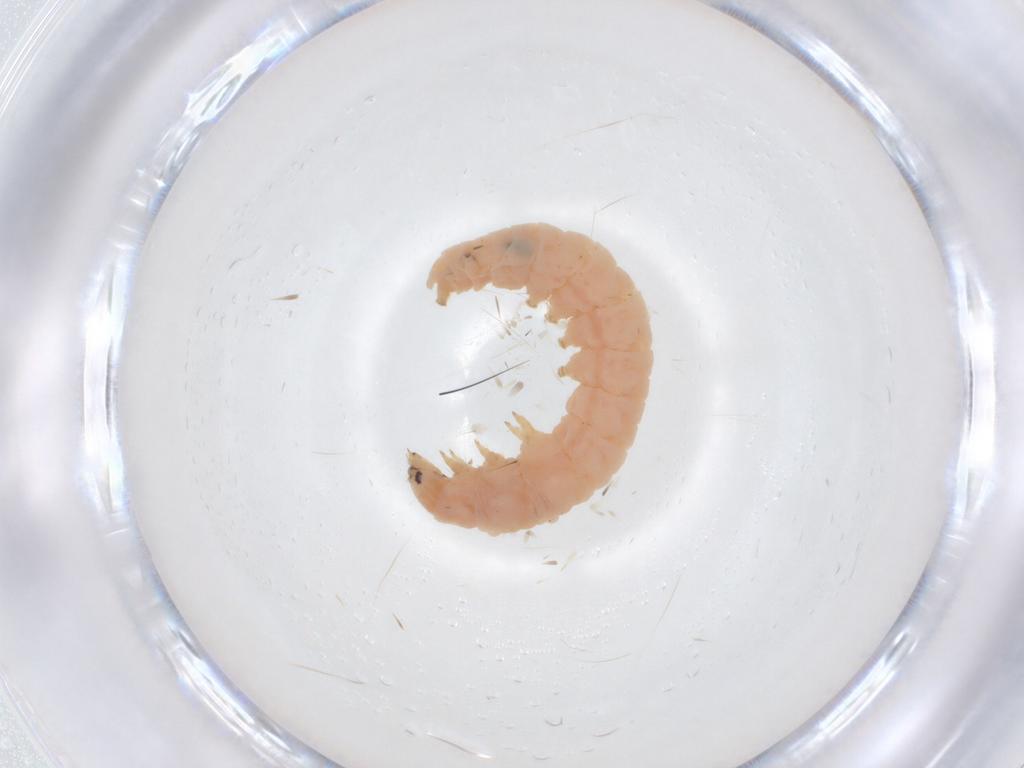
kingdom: Animalia
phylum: Arthropoda
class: Insecta
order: Lepidoptera
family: Gelechiidae
